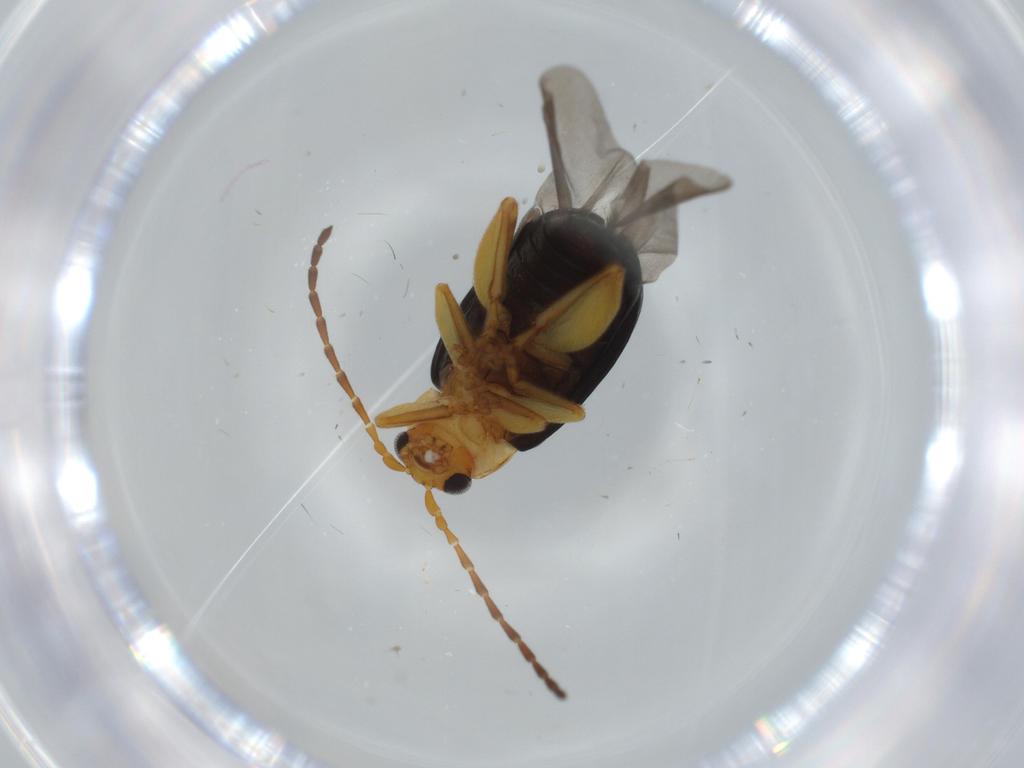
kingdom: Animalia
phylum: Arthropoda
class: Insecta
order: Coleoptera
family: Chrysomelidae
